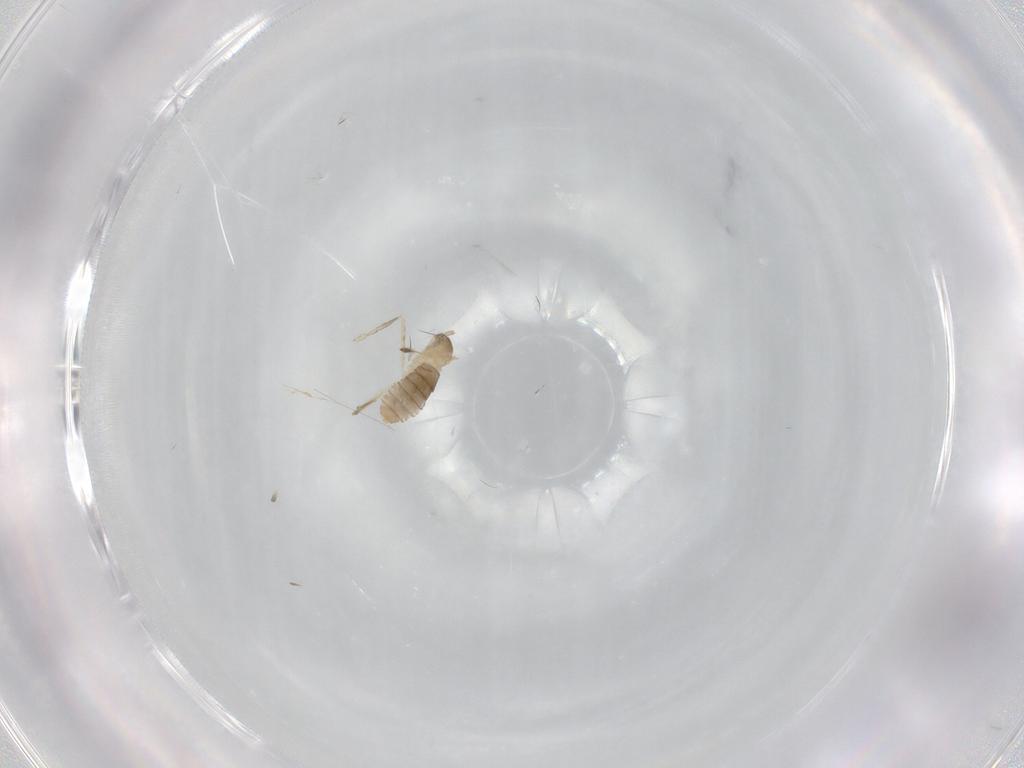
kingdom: Animalia
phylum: Arthropoda
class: Insecta
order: Diptera
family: Cecidomyiidae
